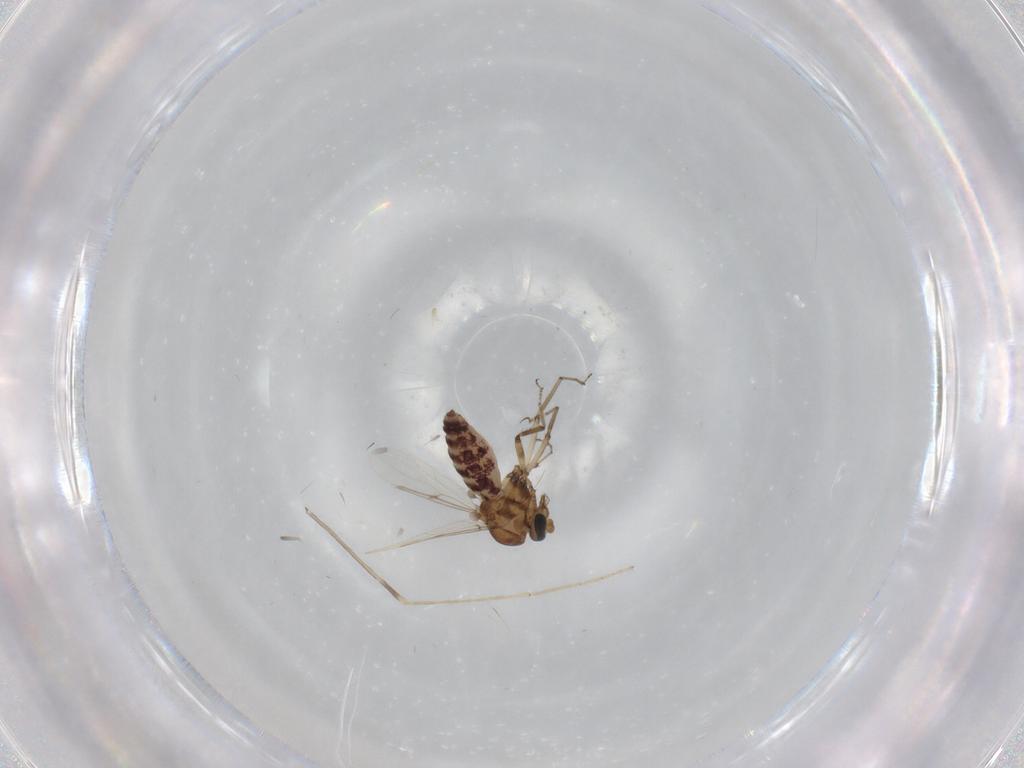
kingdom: Animalia
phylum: Arthropoda
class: Insecta
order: Diptera
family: Ceratopogonidae
